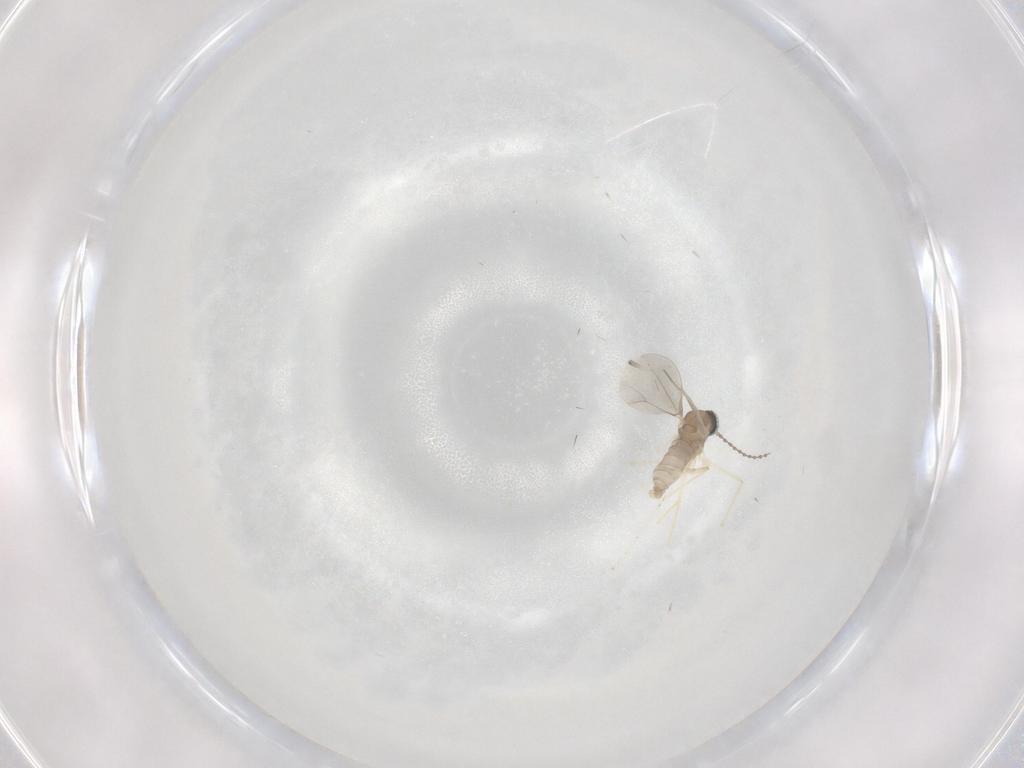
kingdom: Animalia
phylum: Arthropoda
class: Insecta
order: Diptera
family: Cecidomyiidae
